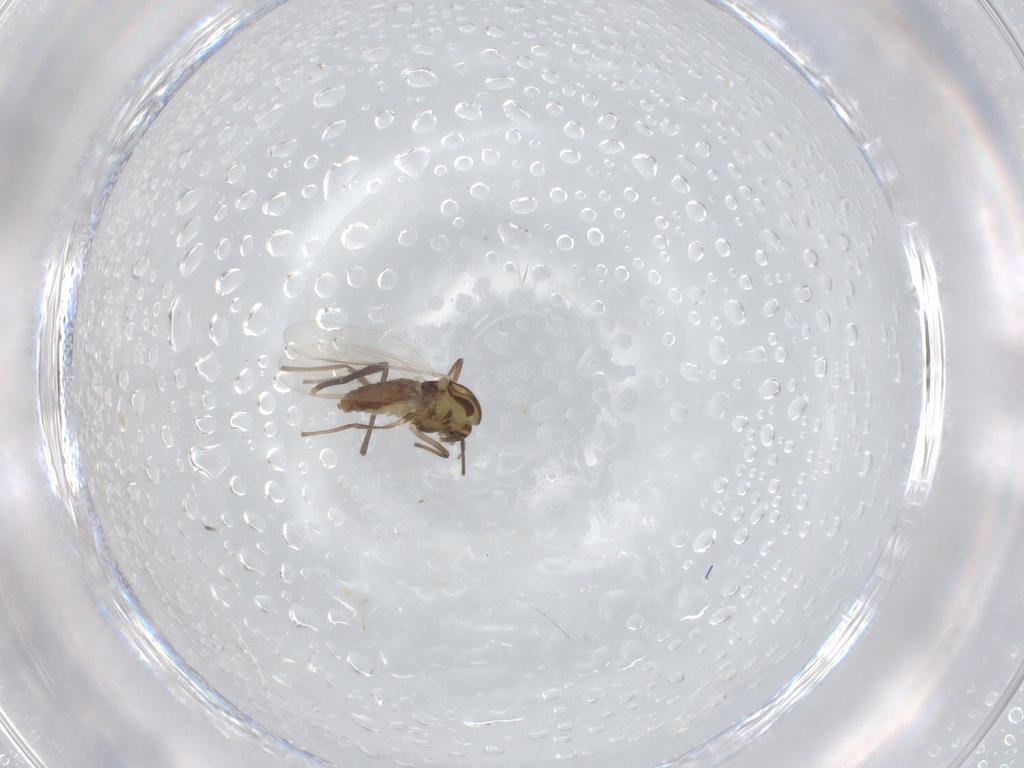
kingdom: Animalia
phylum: Arthropoda
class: Insecta
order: Diptera
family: Chironomidae
